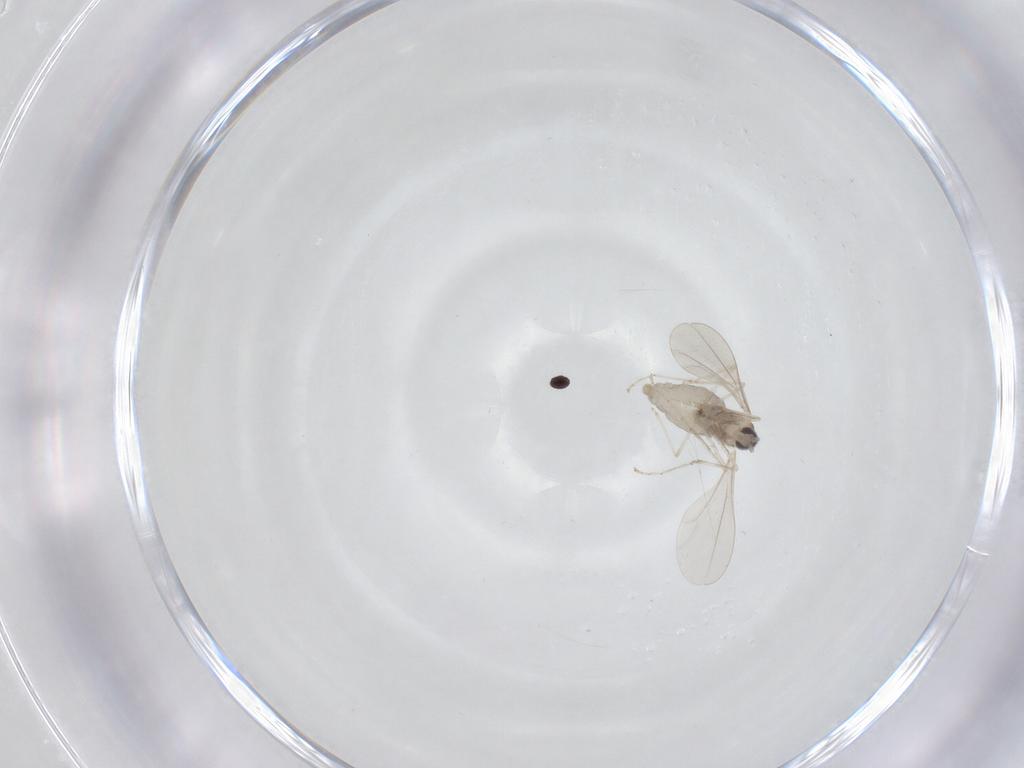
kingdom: Animalia
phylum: Arthropoda
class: Insecta
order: Diptera
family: Cecidomyiidae
